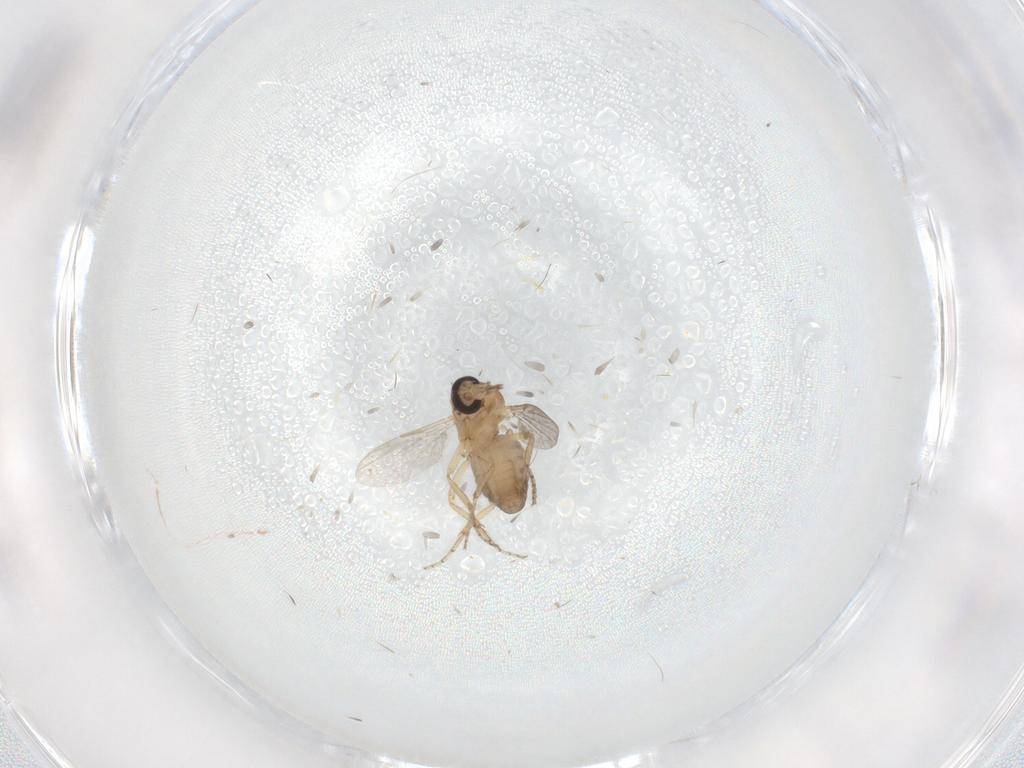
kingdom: Animalia
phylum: Arthropoda
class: Insecta
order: Diptera
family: Ceratopogonidae
